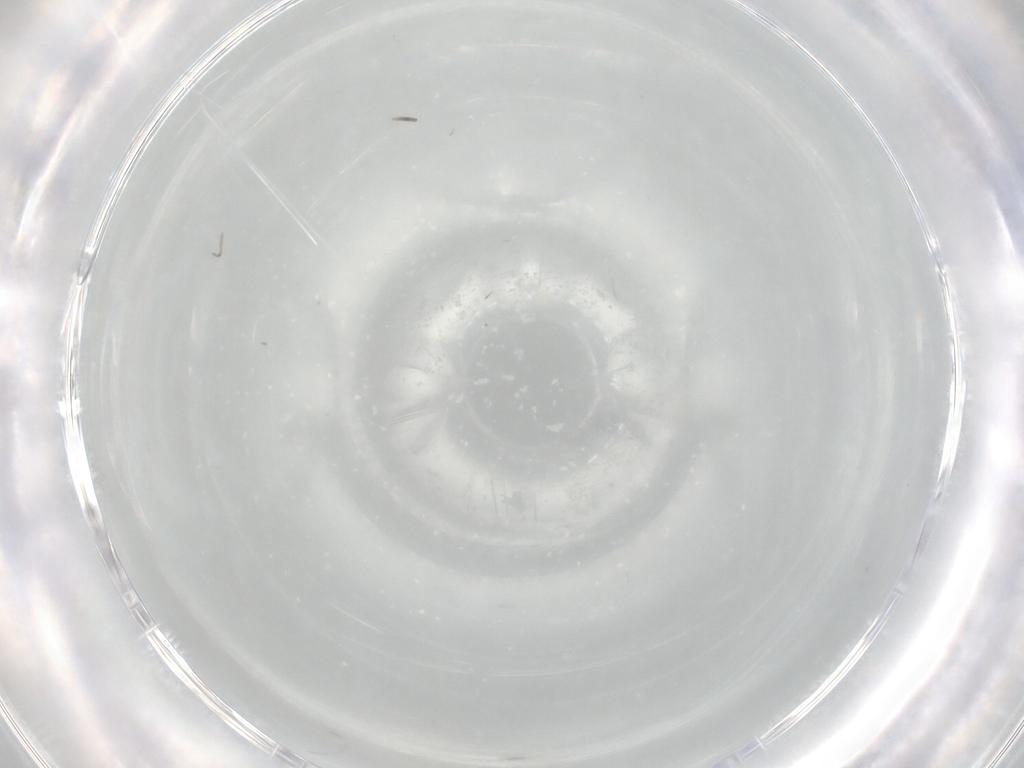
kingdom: Animalia
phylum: Arthropoda
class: Insecta
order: Diptera
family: Ceratopogonidae
